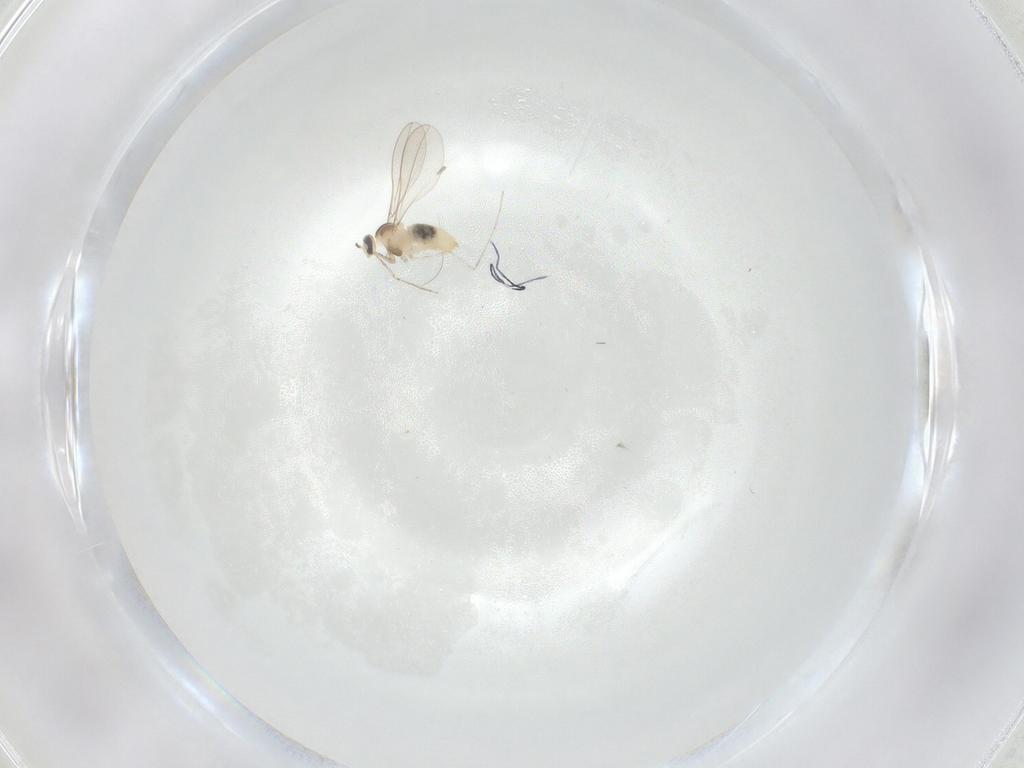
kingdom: Animalia
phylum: Arthropoda
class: Insecta
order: Diptera
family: Cecidomyiidae
